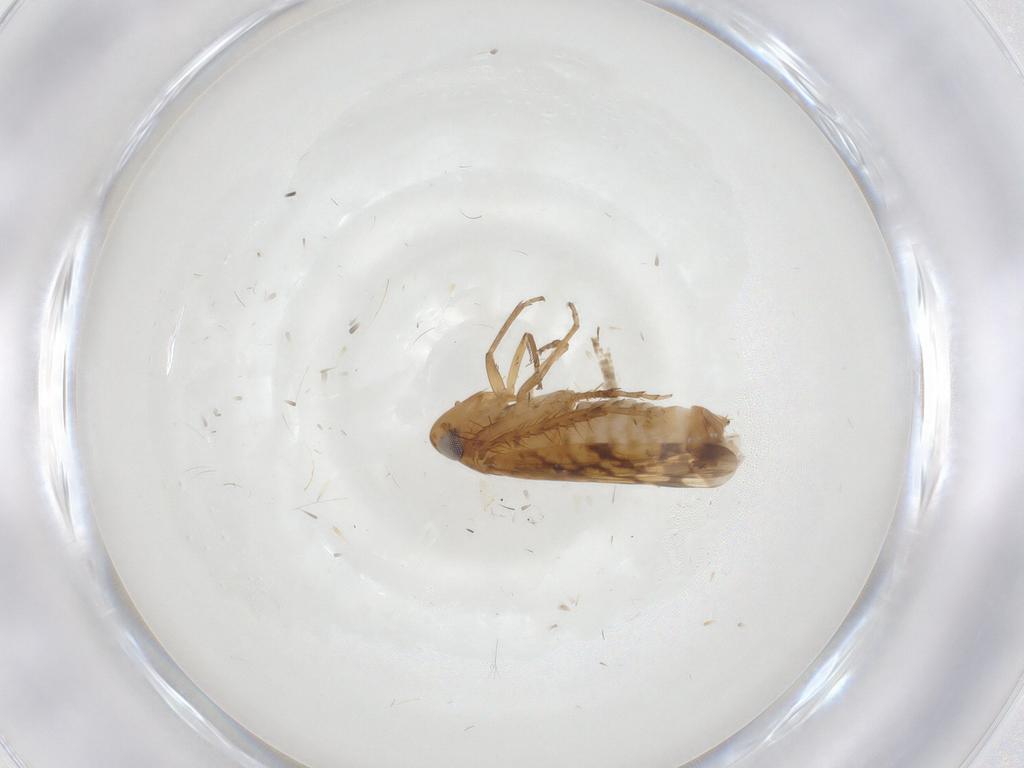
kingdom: Animalia
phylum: Arthropoda
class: Insecta
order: Hemiptera
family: Cicadellidae
